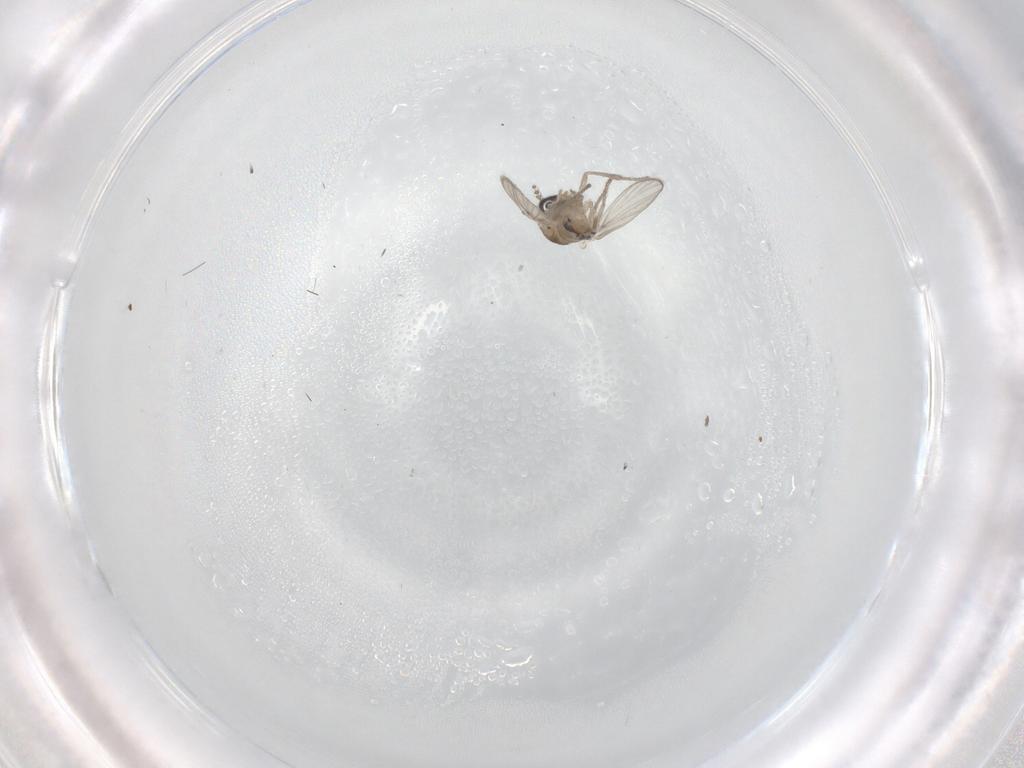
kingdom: Animalia
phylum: Arthropoda
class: Insecta
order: Diptera
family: Psychodidae
